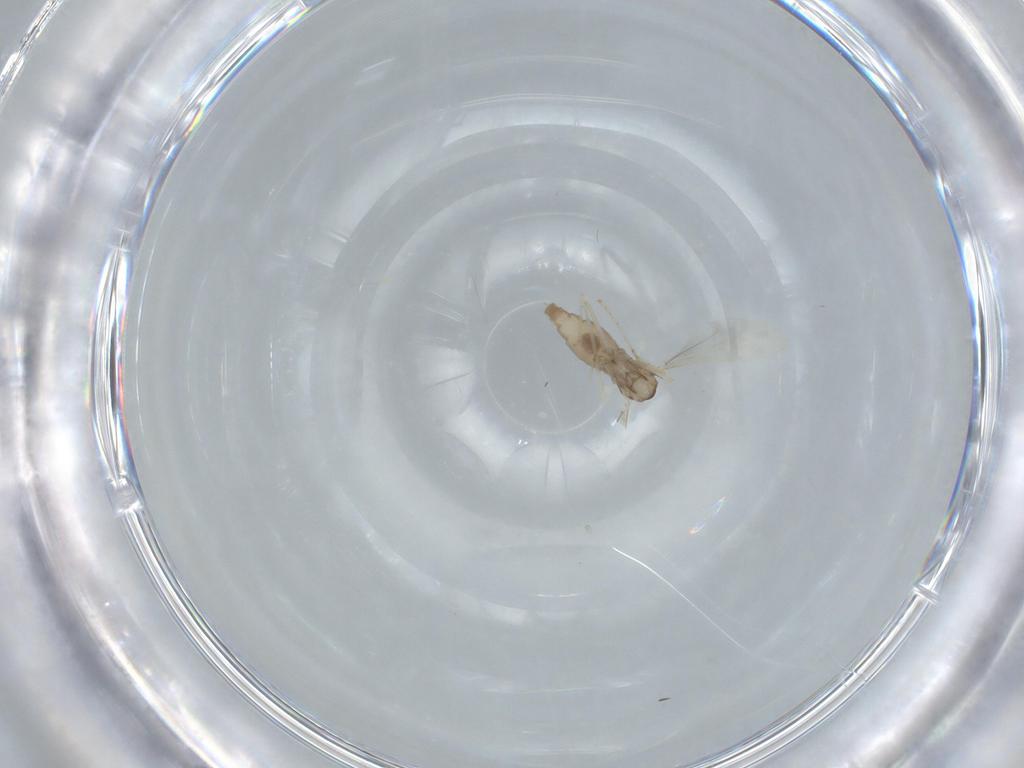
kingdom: Animalia
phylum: Arthropoda
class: Insecta
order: Diptera
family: Cecidomyiidae
